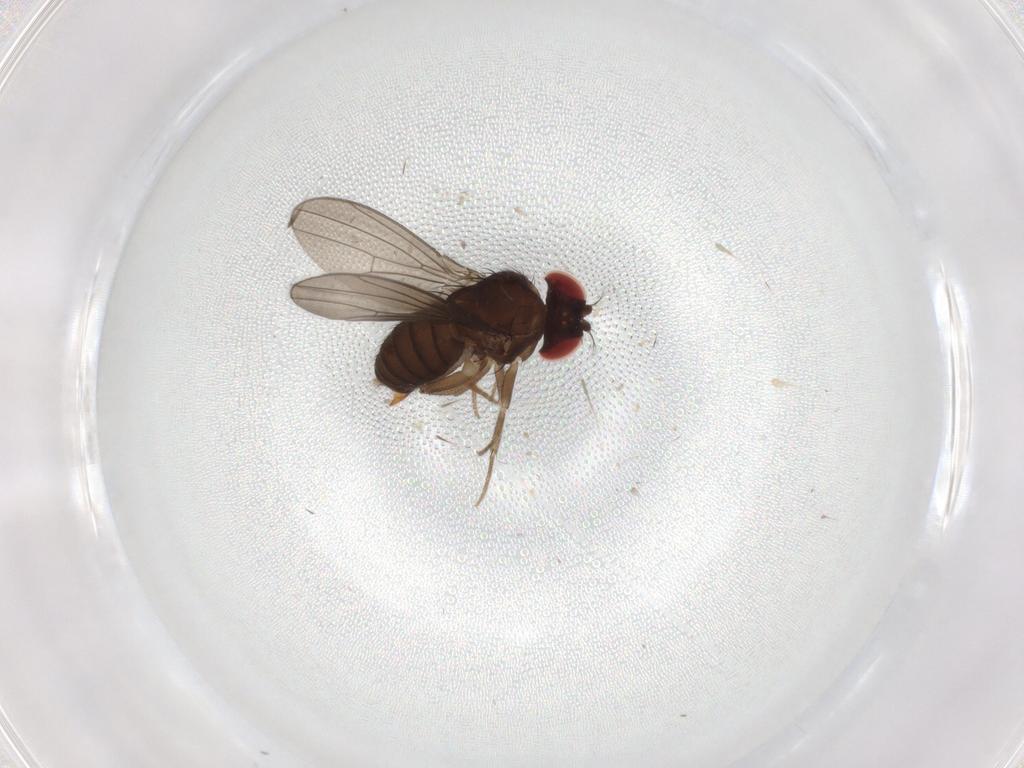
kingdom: Animalia
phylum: Arthropoda
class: Insecta
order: Diptera
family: Drosophilidae
